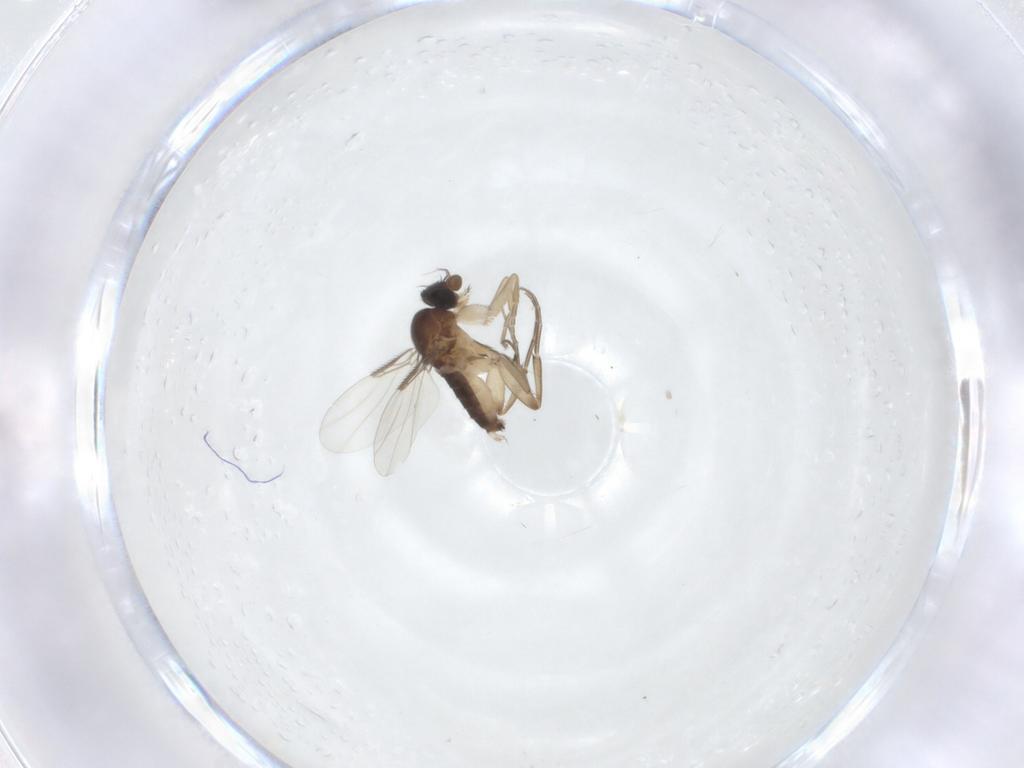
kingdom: Animalia
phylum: Arthropoda
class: Insecta
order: Diptera
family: Phoridae
